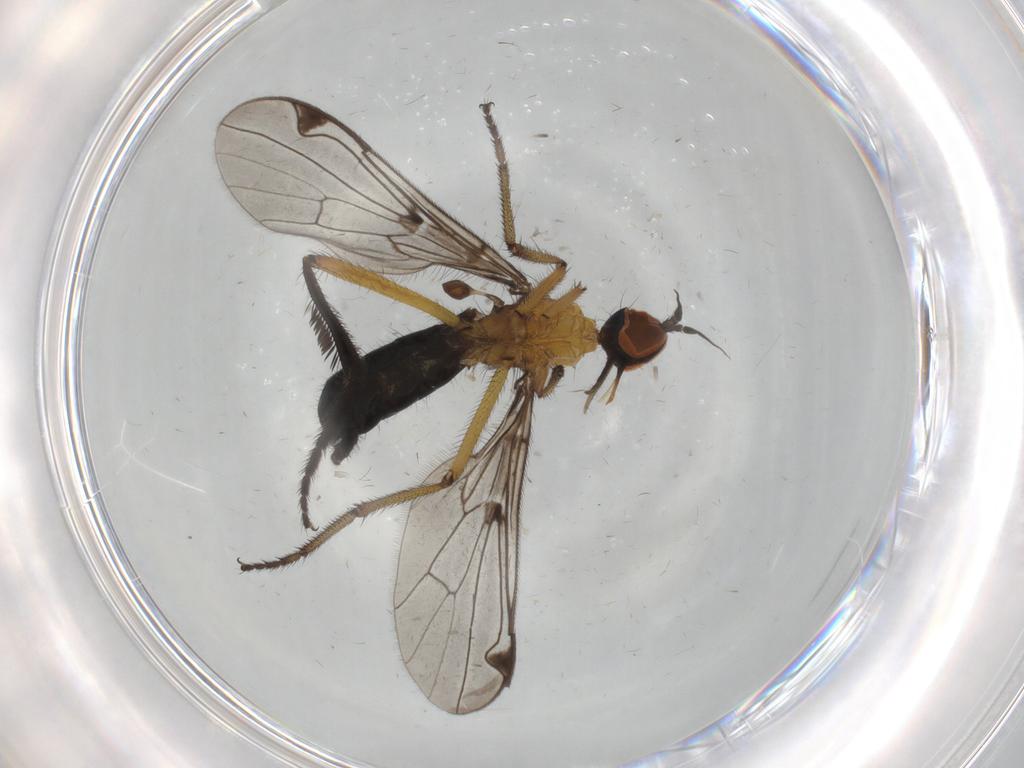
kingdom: Animalia
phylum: Arthropoda
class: Insecta
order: Diptera
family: Empididae
